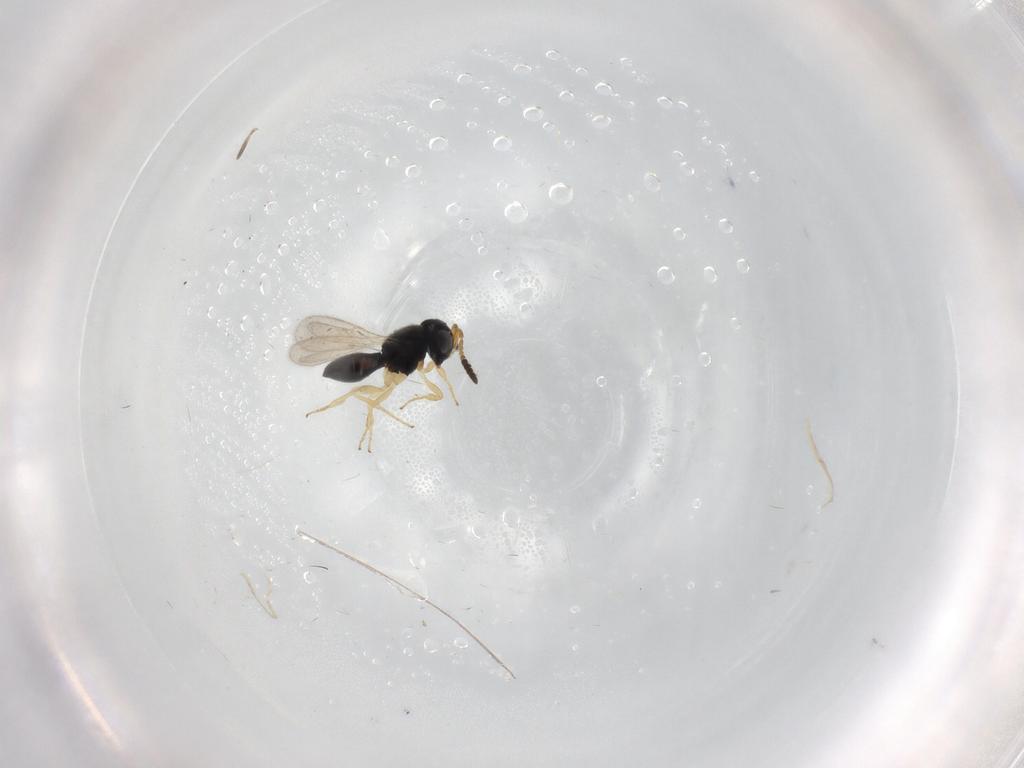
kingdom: Animalia
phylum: Arthropoda
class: Insecta
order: Hymenoptera
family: Scelionidae
